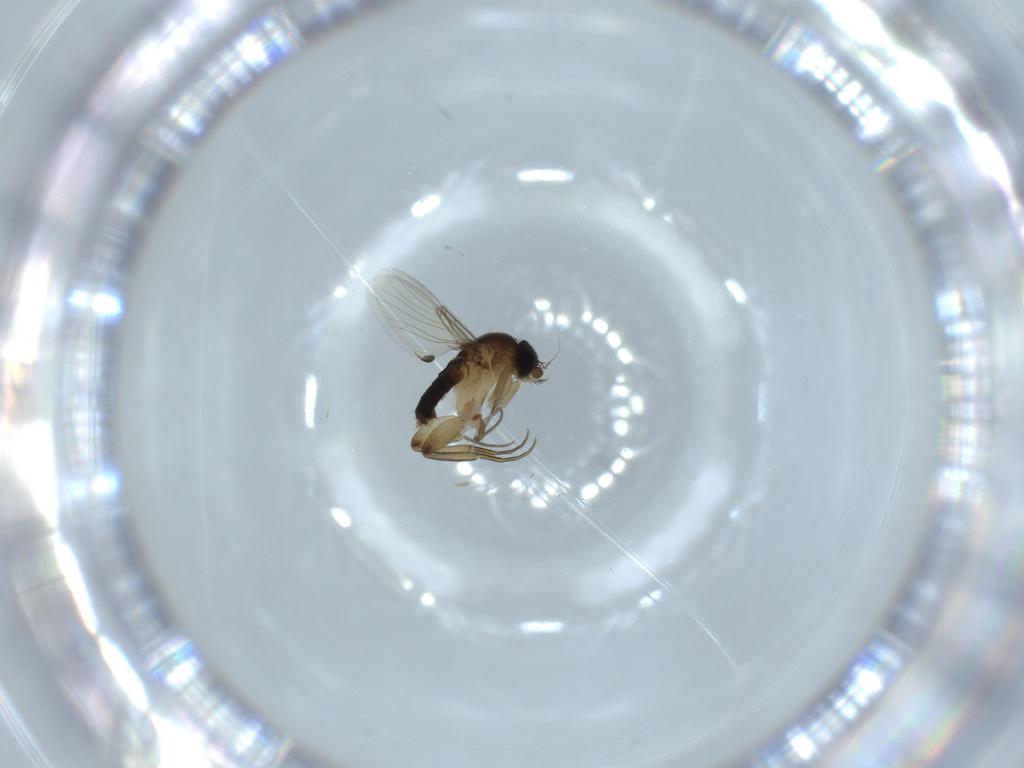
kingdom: Animalia
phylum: Arthropoda
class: Insecta
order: Diptera
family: Phoridae
